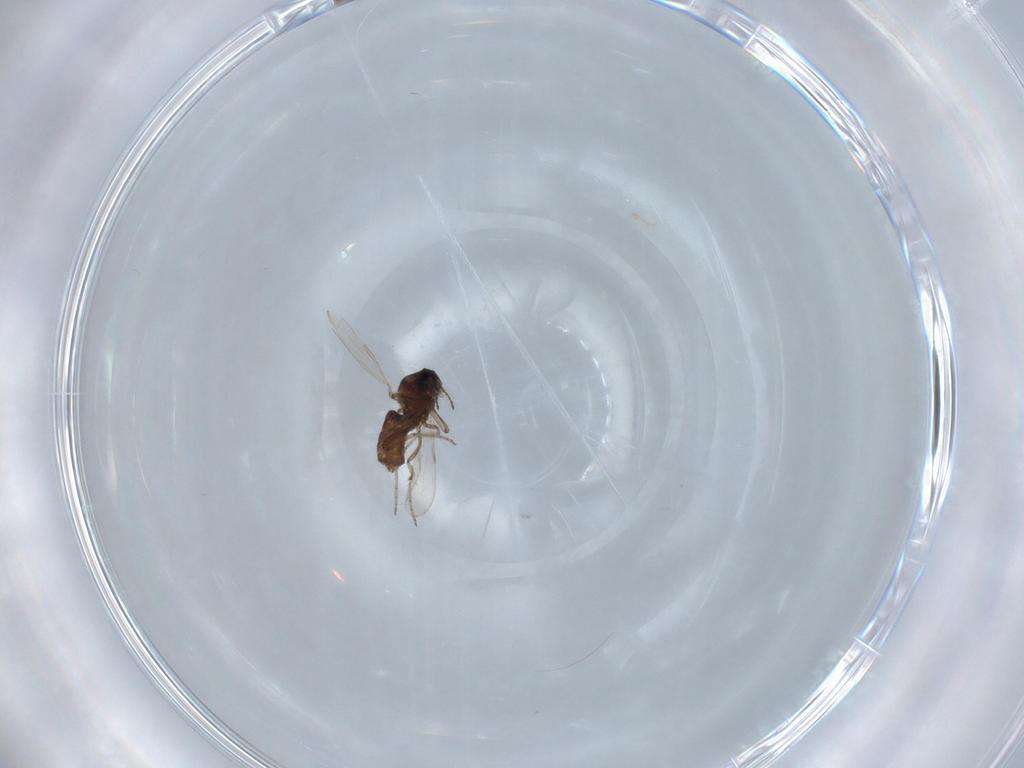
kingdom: Animalia
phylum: Arthropoda
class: Insecta
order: Diptera
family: Ceratopogonidae
